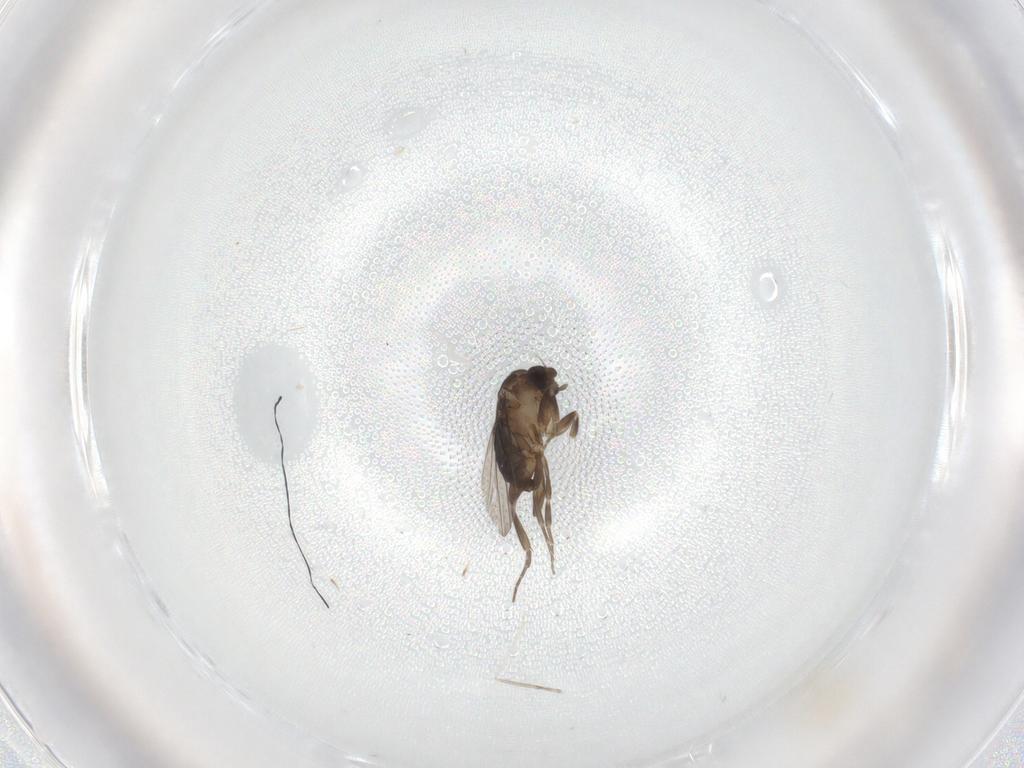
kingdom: Animalia
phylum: Arthropoda
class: Insecta
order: Diptera
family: Cecidomyiidae
